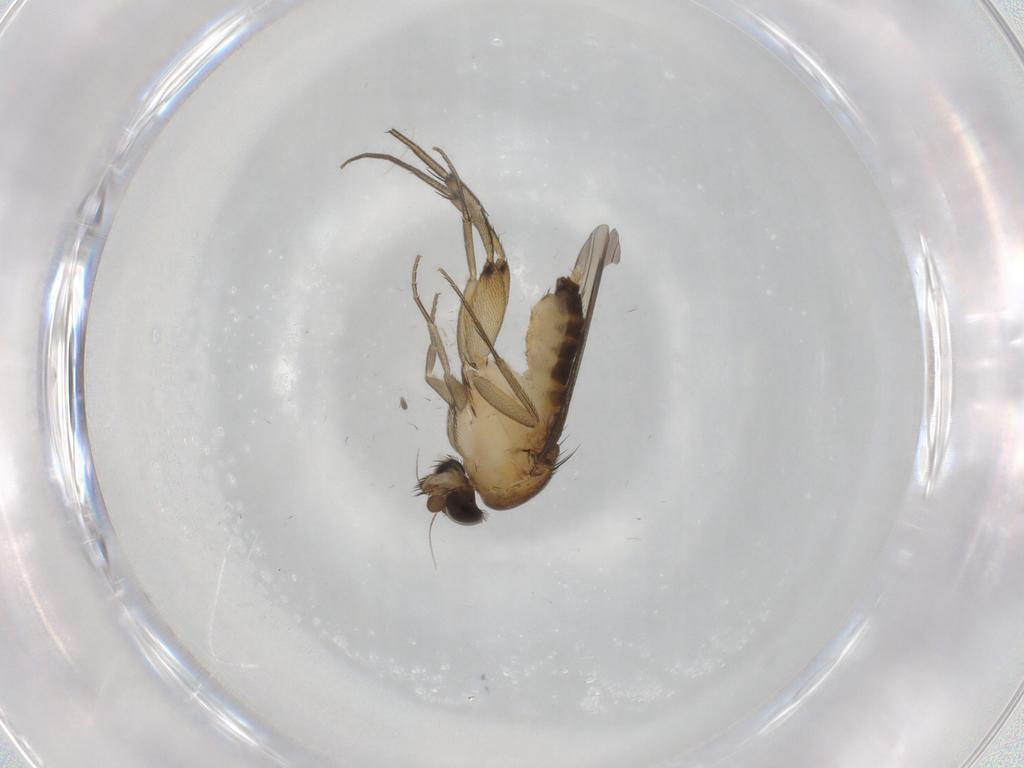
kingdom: Animalia
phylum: Arthropoda
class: Insecta
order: Diptera
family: Phoridae
